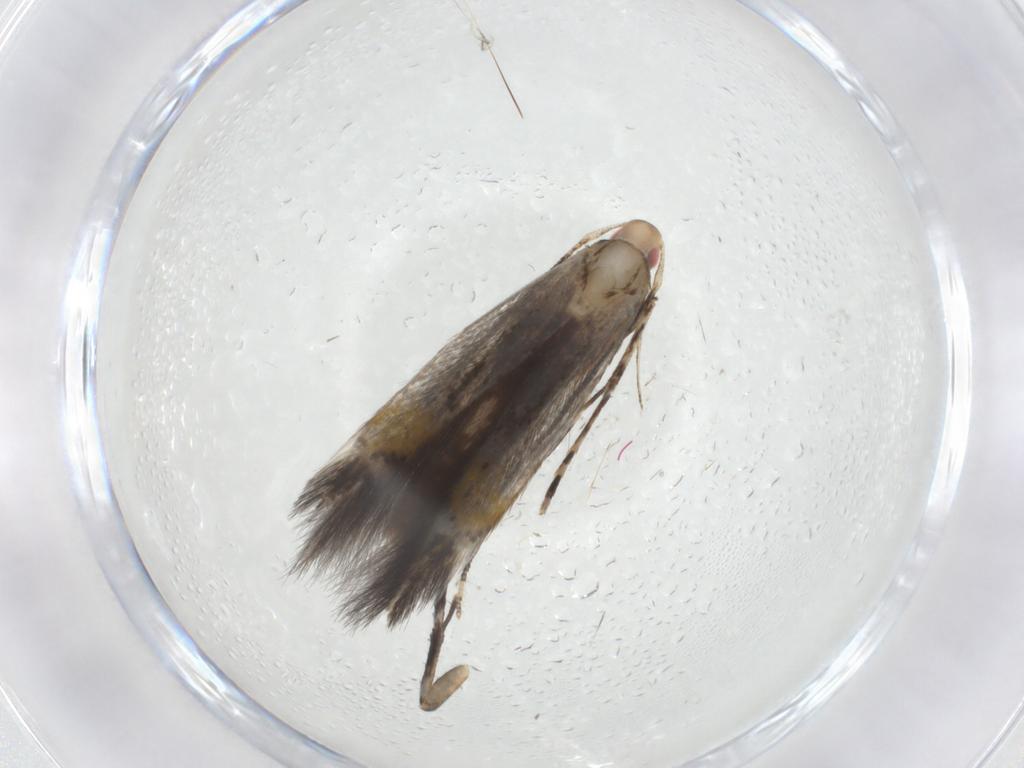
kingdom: Animalia
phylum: Arthropoda
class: Insecta
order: Lepidoptera
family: Cosmopterigidae
